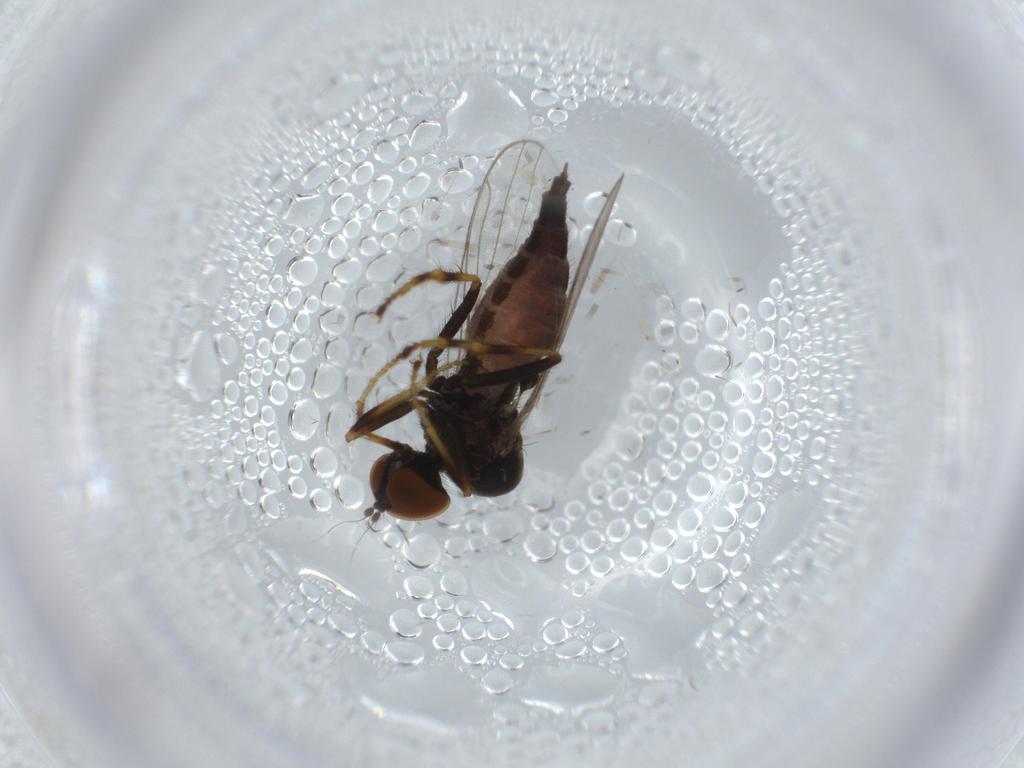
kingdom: Animalia
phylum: Arthropoda
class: Insecta
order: Diptera
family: Hybotidae
